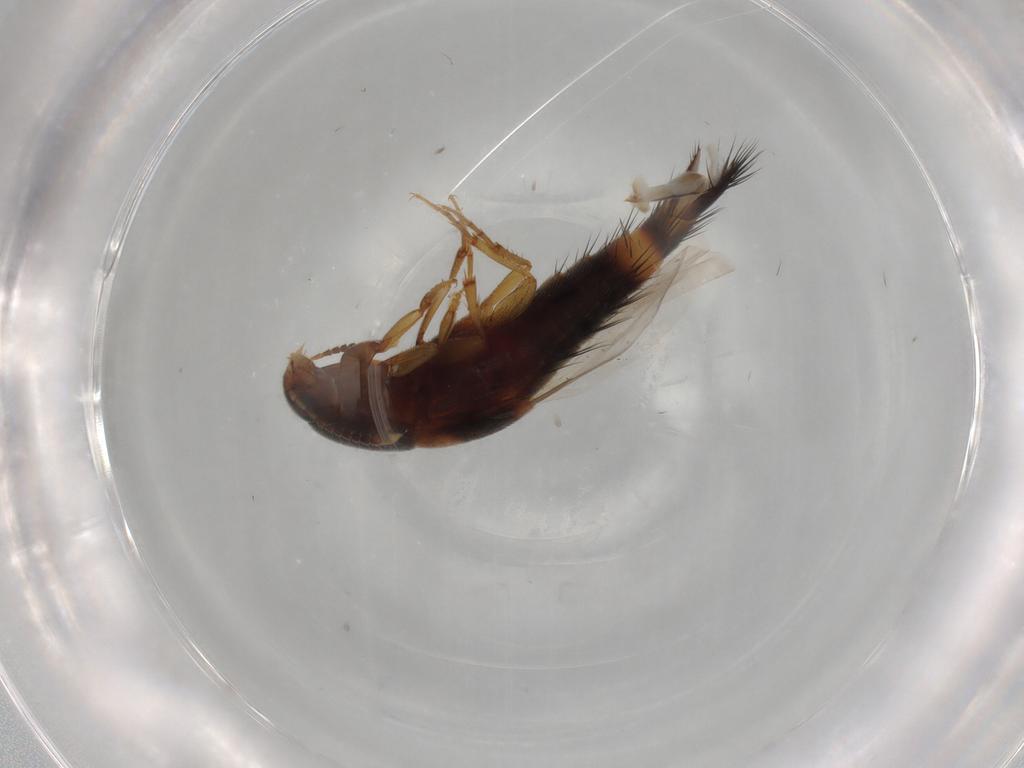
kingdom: Animalia
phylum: Arthropoda
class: Insecta
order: Coleoptera
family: Staphylinidae
